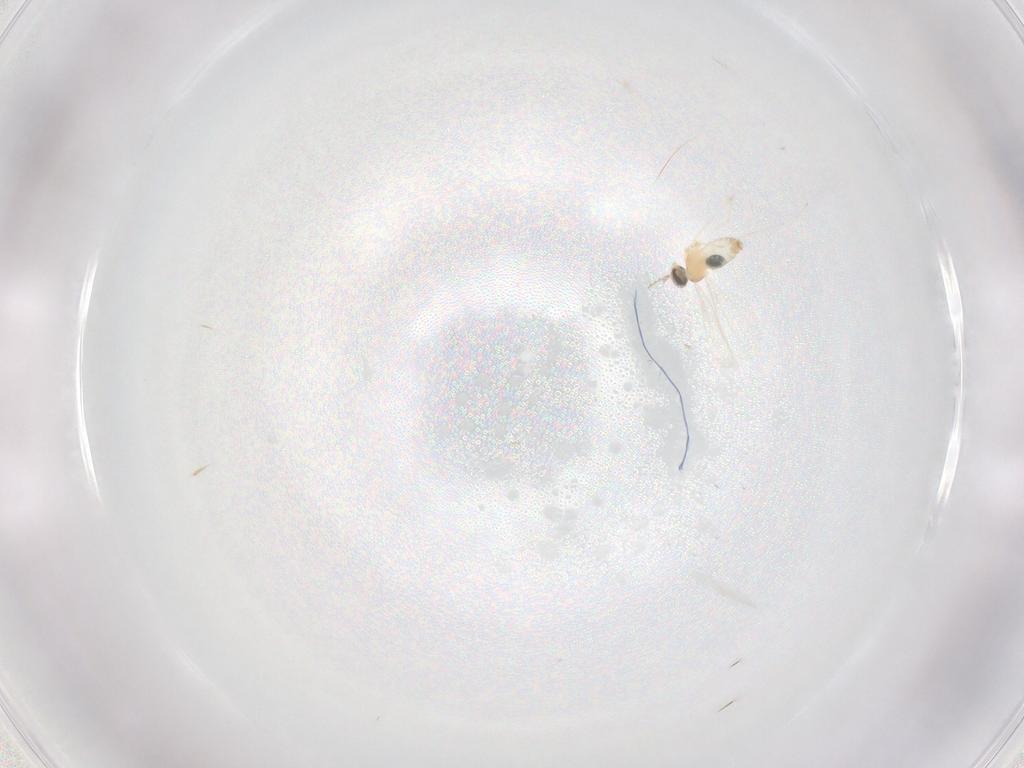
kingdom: Animalia
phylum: Arthropoda
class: Insecta
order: Diptera
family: Cecidomyiidae
